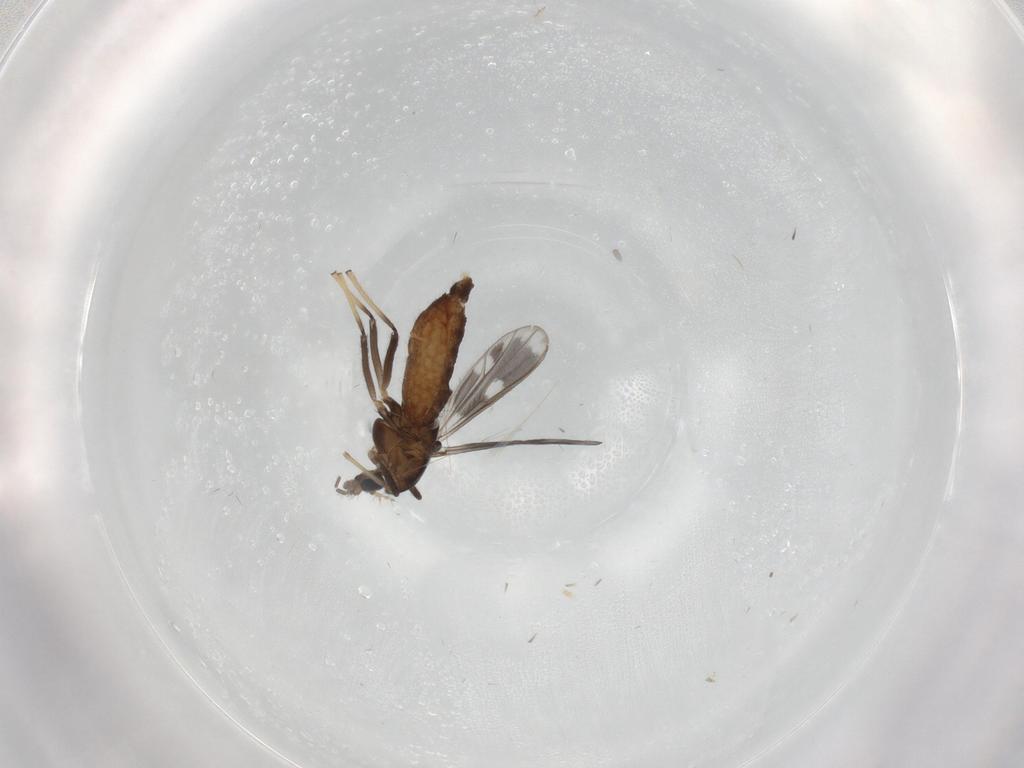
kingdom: Animalia
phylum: Arthropoda
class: Insecta
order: Diptera
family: Chironomidae
